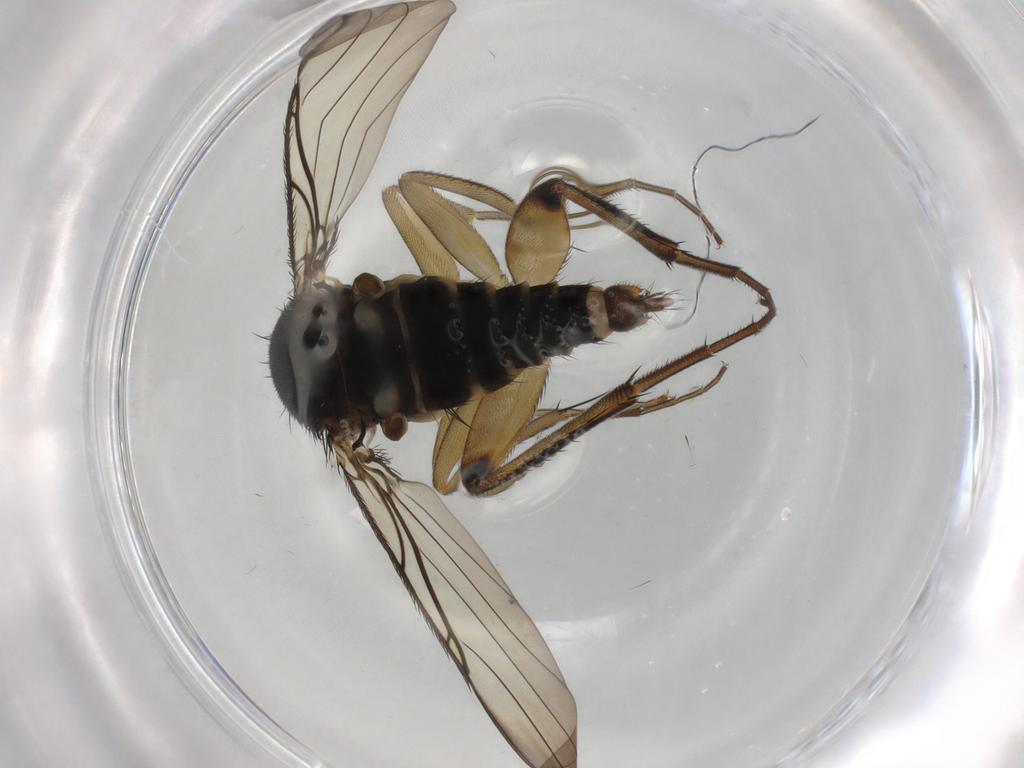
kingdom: Animalia
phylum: Arthropoda
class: Insecta
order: Diptera
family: Phoridae
